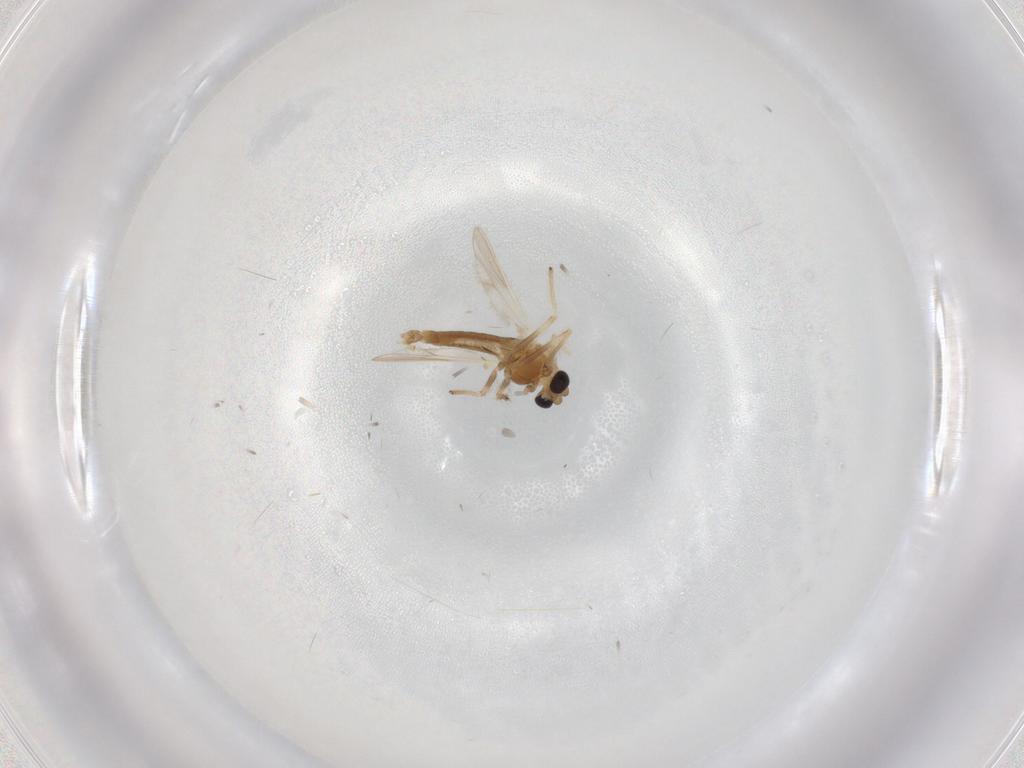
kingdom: Animalia
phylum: Arthropoda
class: Insecta
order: Diptera
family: Chironomidae
